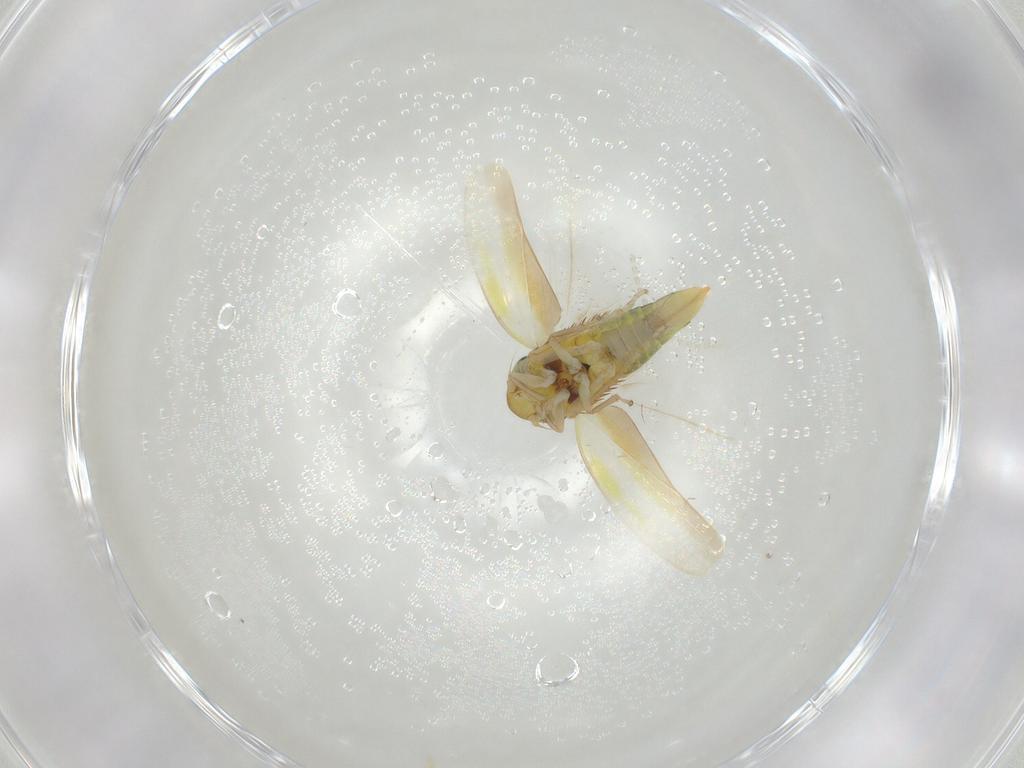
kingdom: Animalia
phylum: Arthropoda
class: Insecta
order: Hemiptera
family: Cicadellidae
